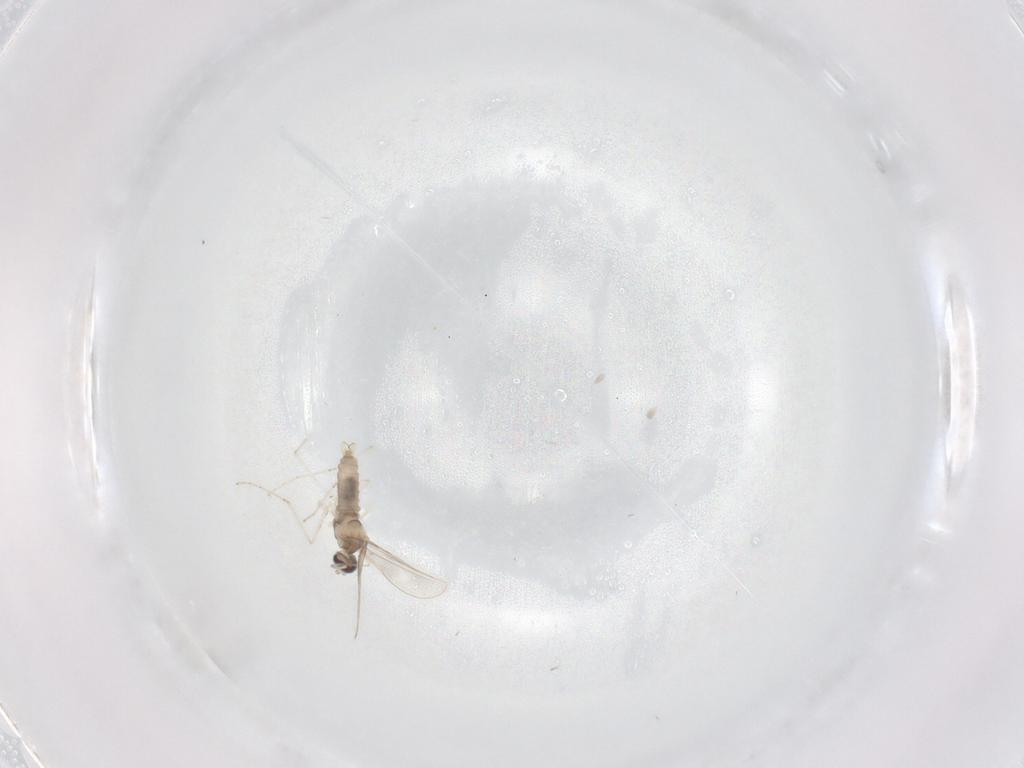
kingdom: Animalia
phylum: Arthropoda
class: Insecta
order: Diptera
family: Cecidomyiidae
